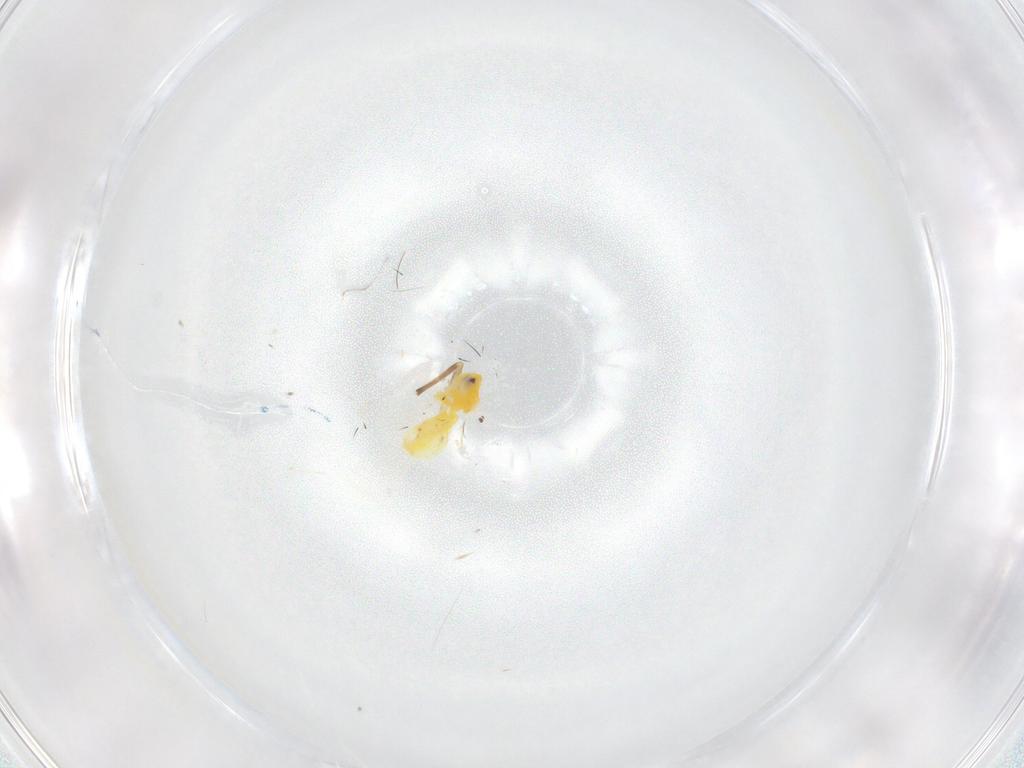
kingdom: Animalia
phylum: Arthropoda
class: Insecta
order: Hemiptera
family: Aleyrodidae
